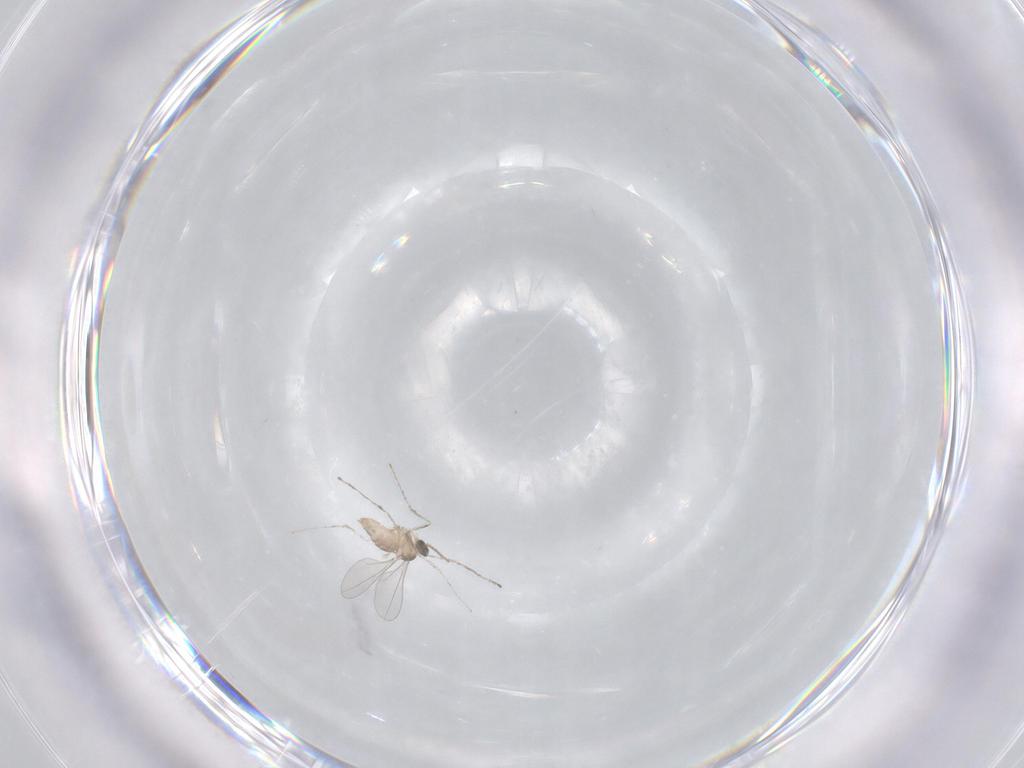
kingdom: Animalia
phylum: Arthropoda
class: Insecta
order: Diptera
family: Cecidomyiidae
